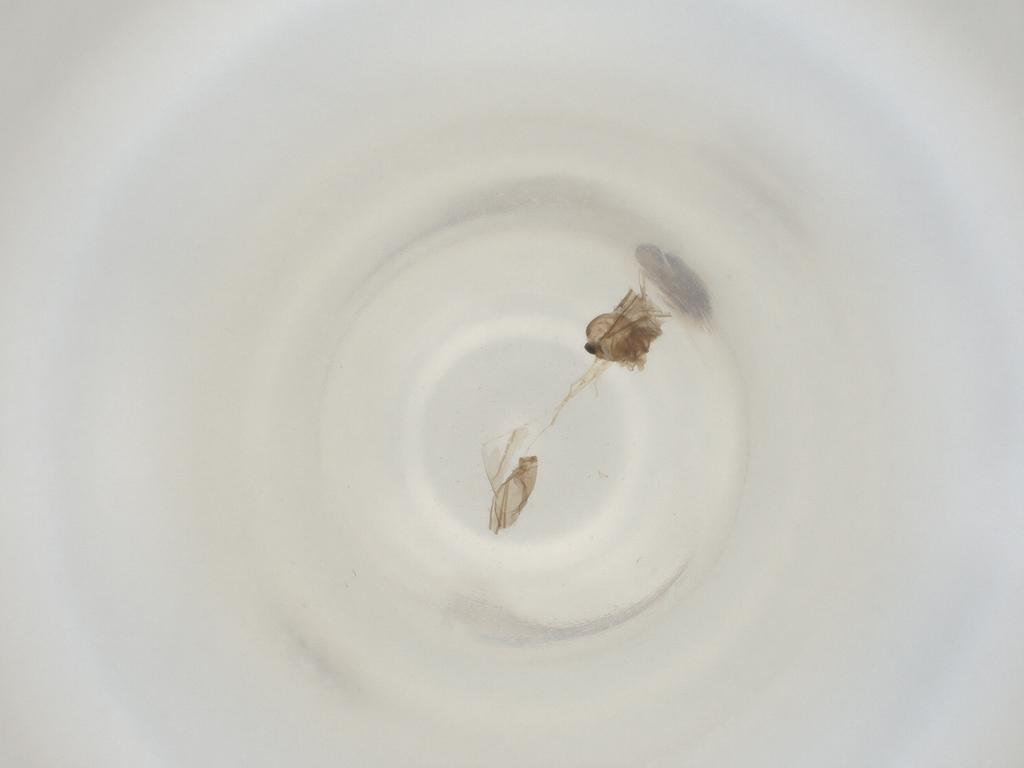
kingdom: Animalia
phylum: Arthropoda
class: Insecta
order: Diptera
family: Cecidomyiidae
